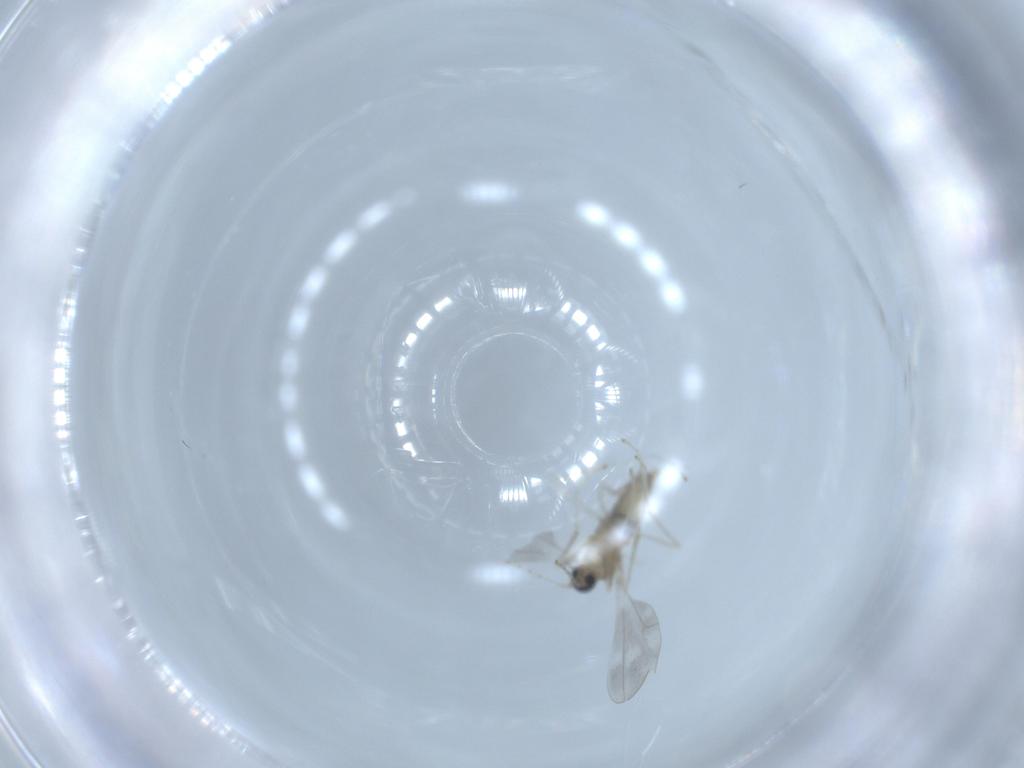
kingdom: Animalia
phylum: Arthropoda
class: Insecta
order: Diptera
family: Cecidomyiidae
